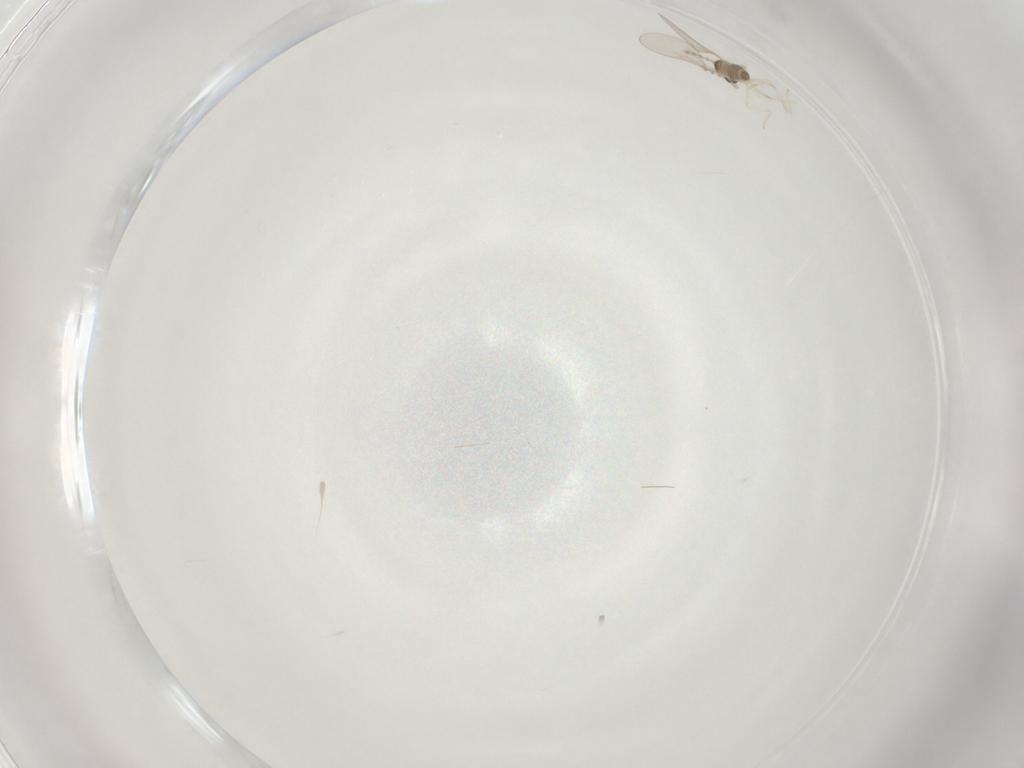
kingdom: Animalia
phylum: Arthropoda
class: Insecta
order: Diptera
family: Cecidomyiidae
